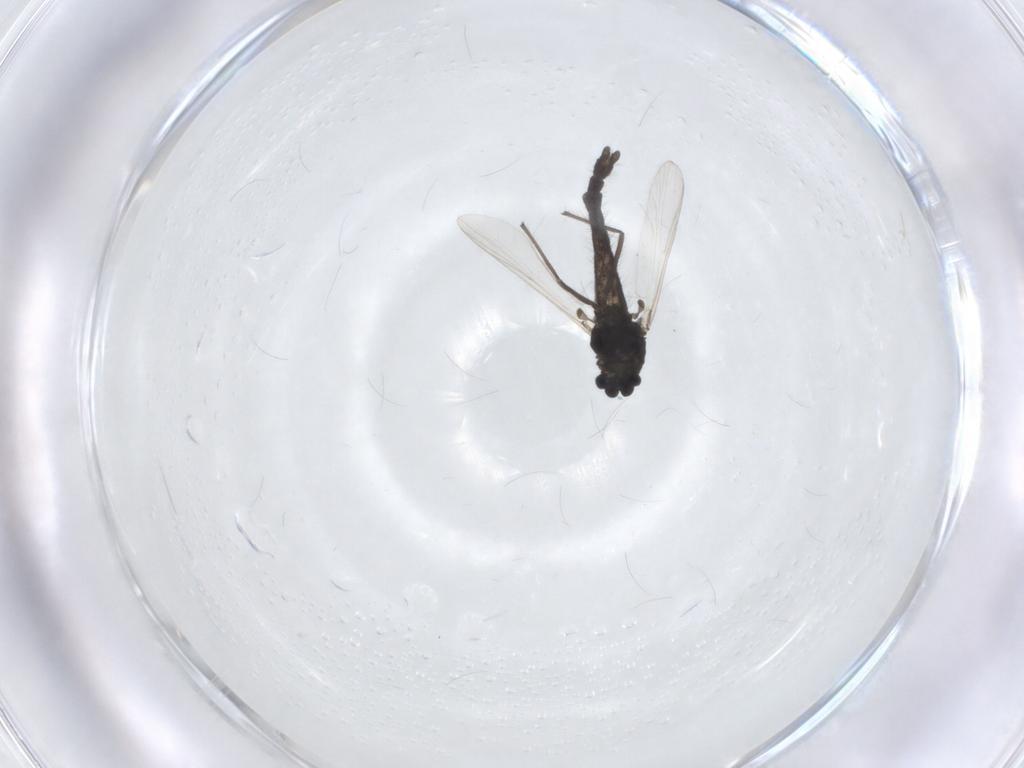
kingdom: Animalia
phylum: Arthropoda
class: Insecta
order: Diptera
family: Chironomidae
